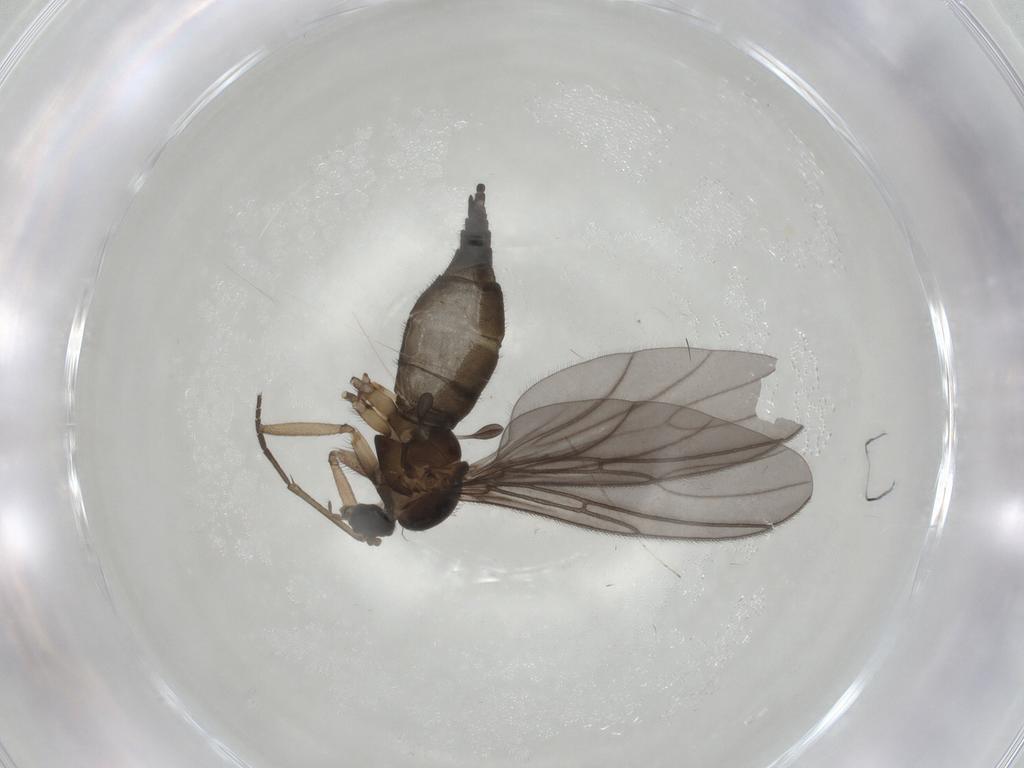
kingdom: Animalia
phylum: Arthropoda
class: Insecta
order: Diptera
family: Keroplatidae
